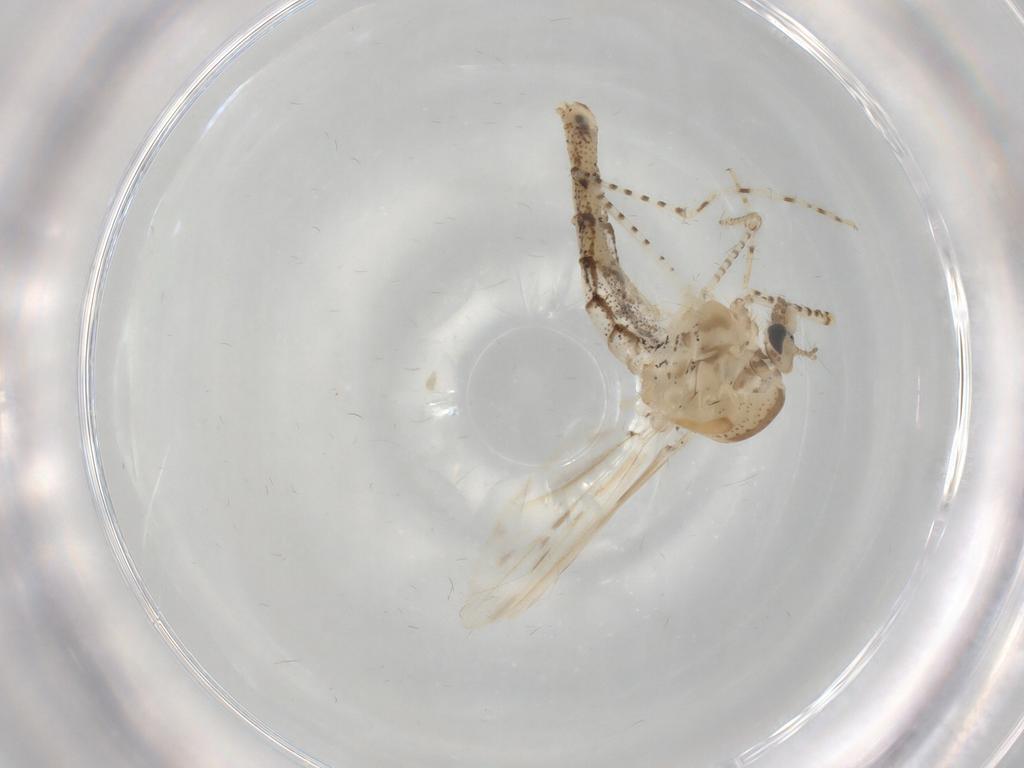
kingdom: Animalia
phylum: Arthropoda
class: Insecta
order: Diptera
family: Chaoboridae
